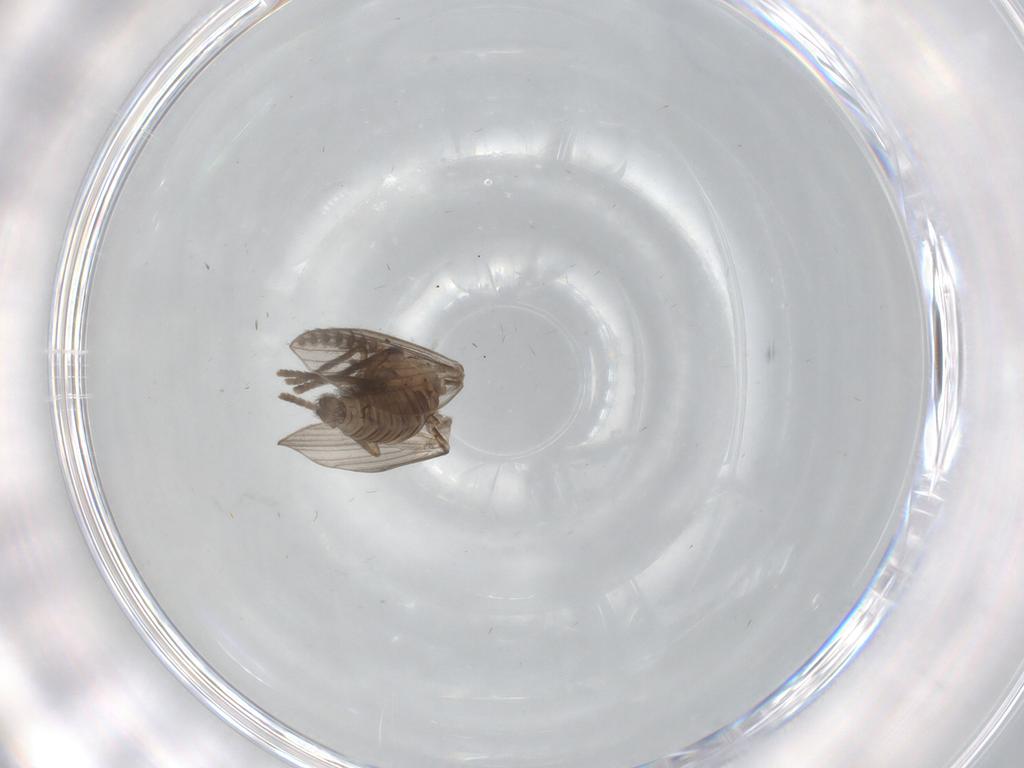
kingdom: Animalia
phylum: Arthropoda
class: Insecta
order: Diptera
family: Psychodidae
